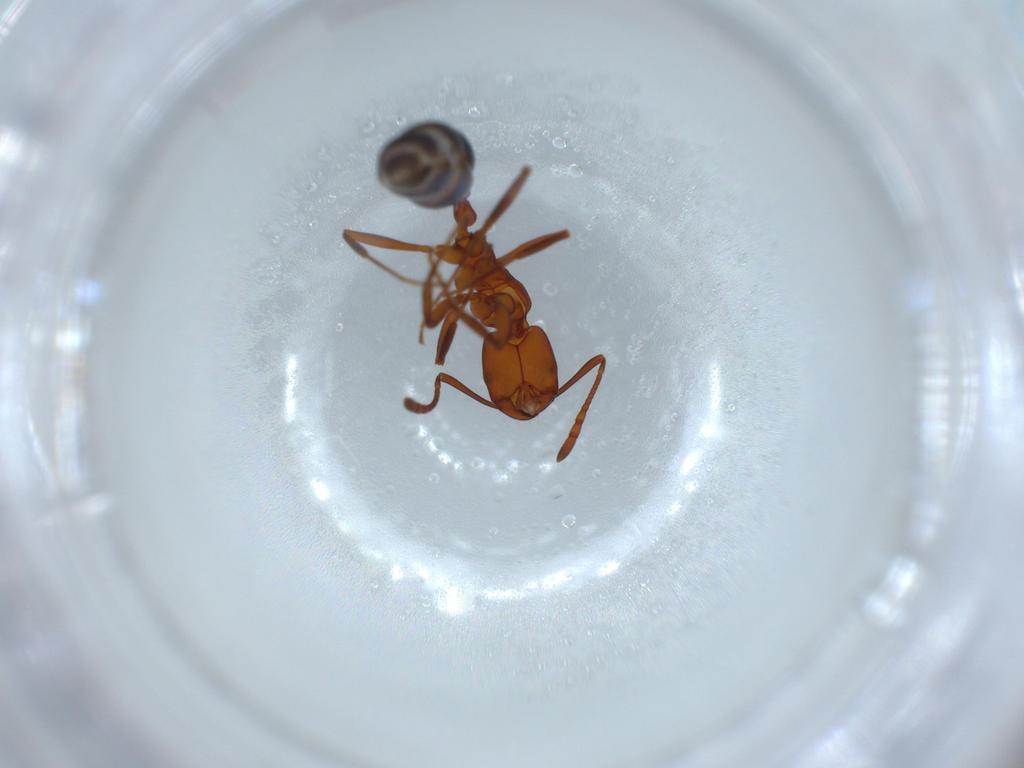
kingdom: Animalia
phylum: Arthropoda
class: Insecta
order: Hymenoptera
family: Formicidae
